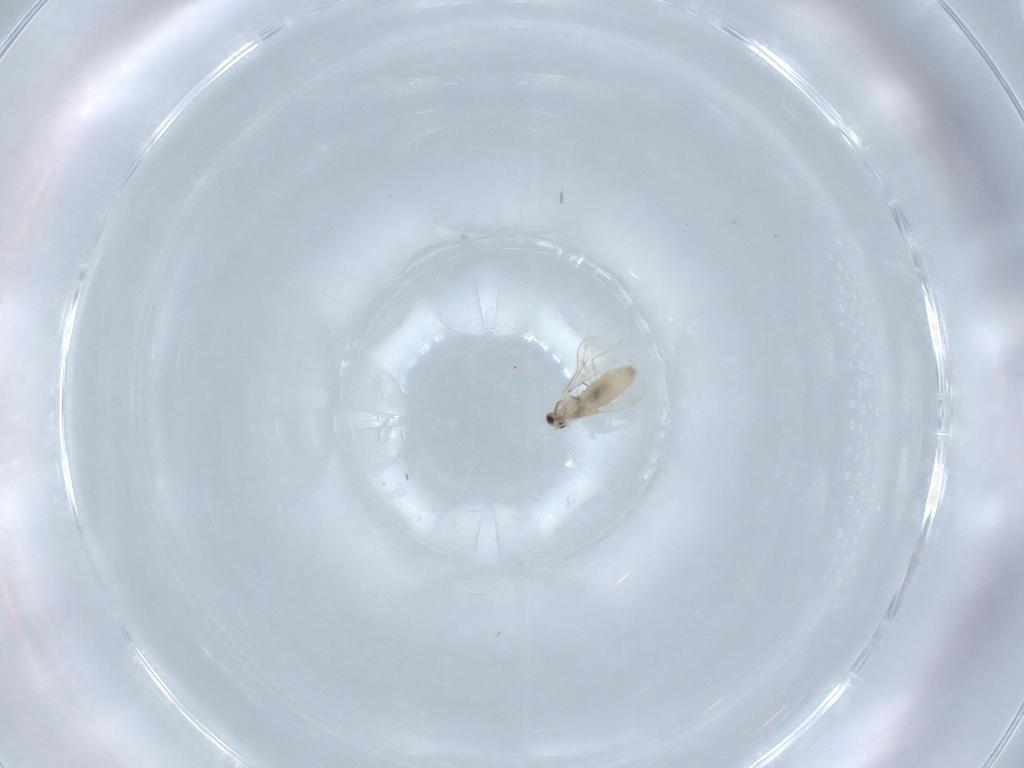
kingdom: Animalia
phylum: Arthropoda
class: Insecta
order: Diptera
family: Cecidomyiidae
